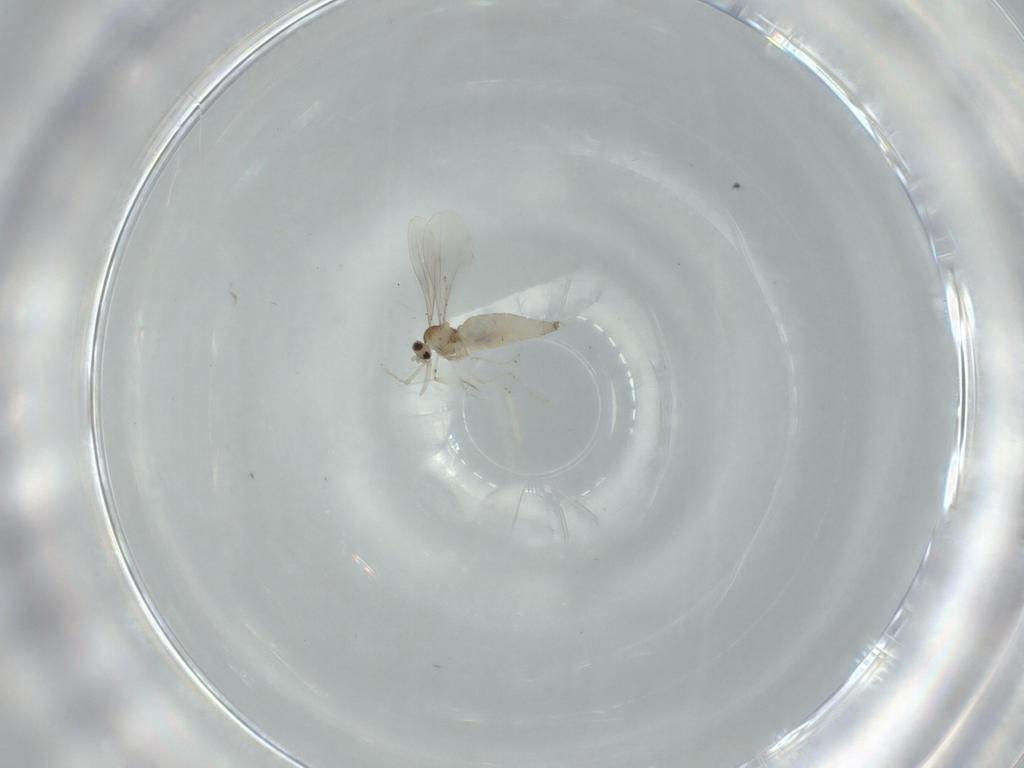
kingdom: Animalia
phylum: Arthropoda
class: Insecta
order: Diptera
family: Cecidomyiidae
